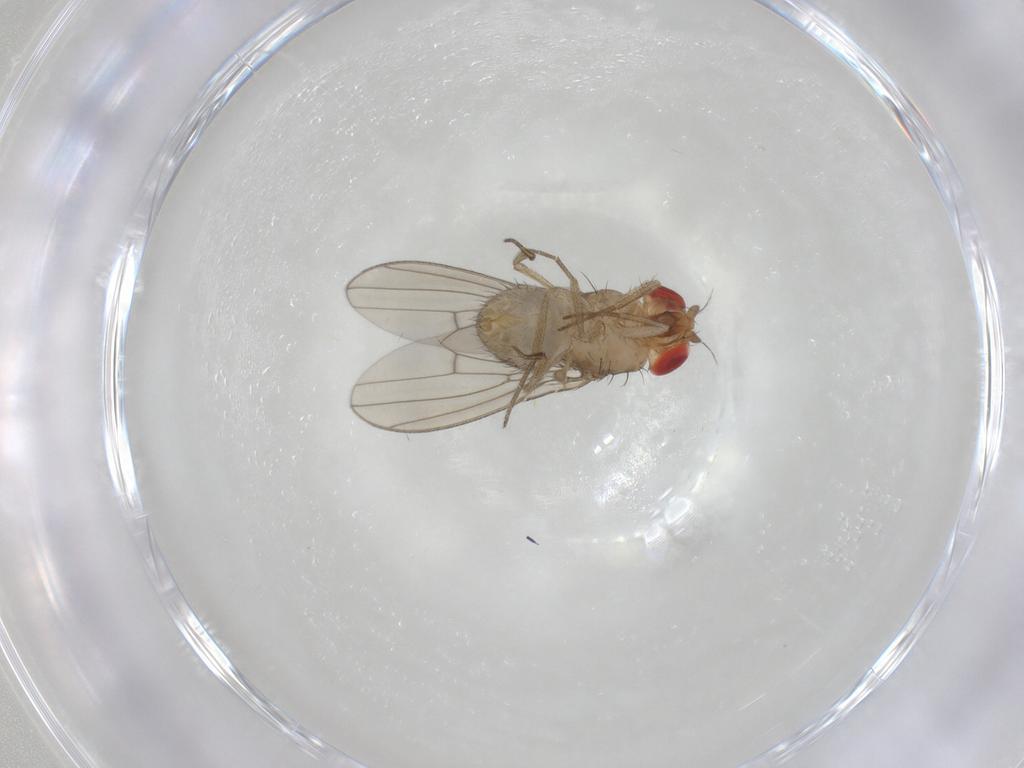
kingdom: Animalia
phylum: Arthropoda
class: Insecta
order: Diptera
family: Drosophilidae
